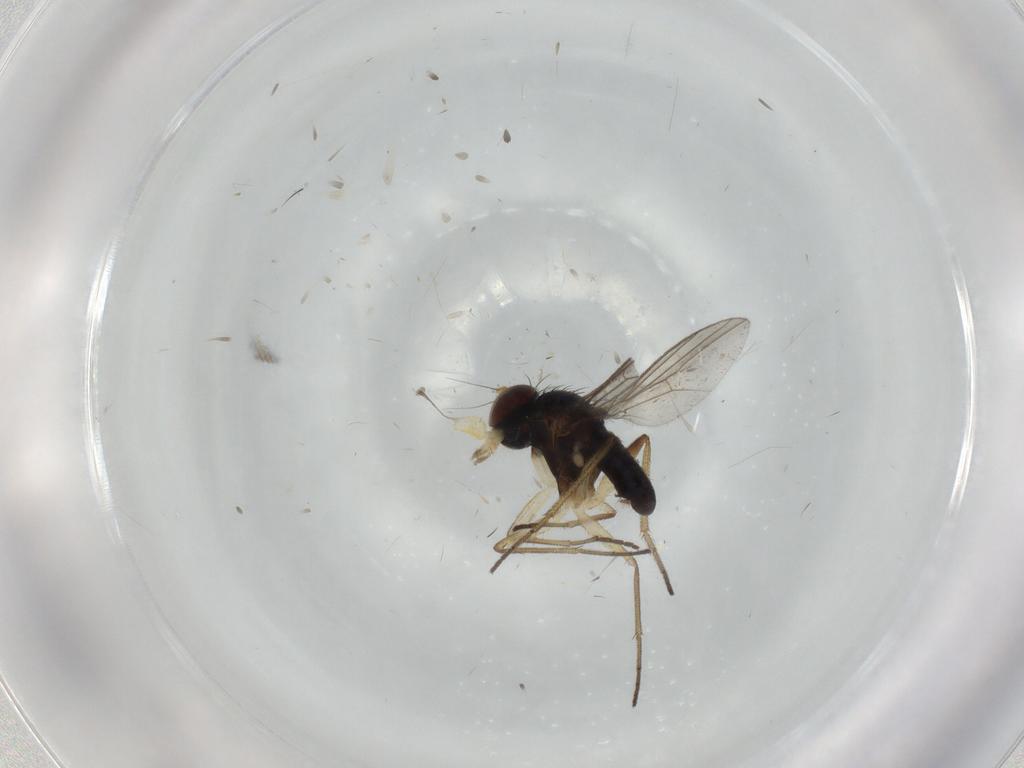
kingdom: Animalia
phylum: Arthropoda
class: Insecta
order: Diptera
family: Dolichopodidae
